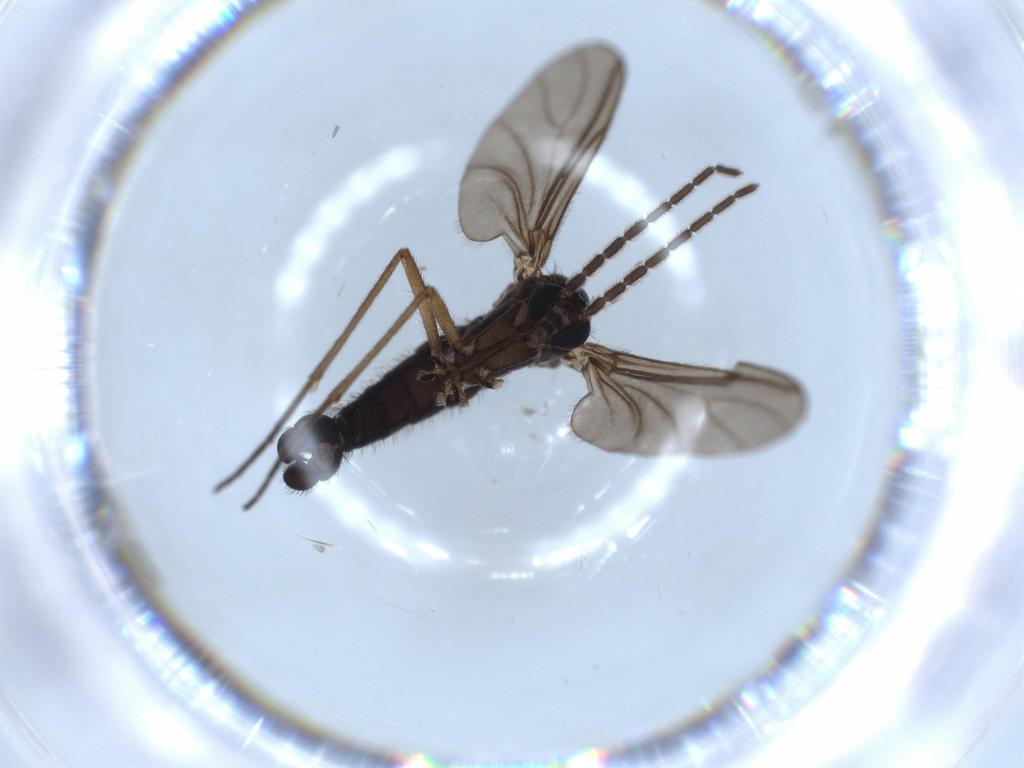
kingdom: Animalia
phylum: Arthropoda
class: Insecta
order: Diptera
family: Sciaridae
